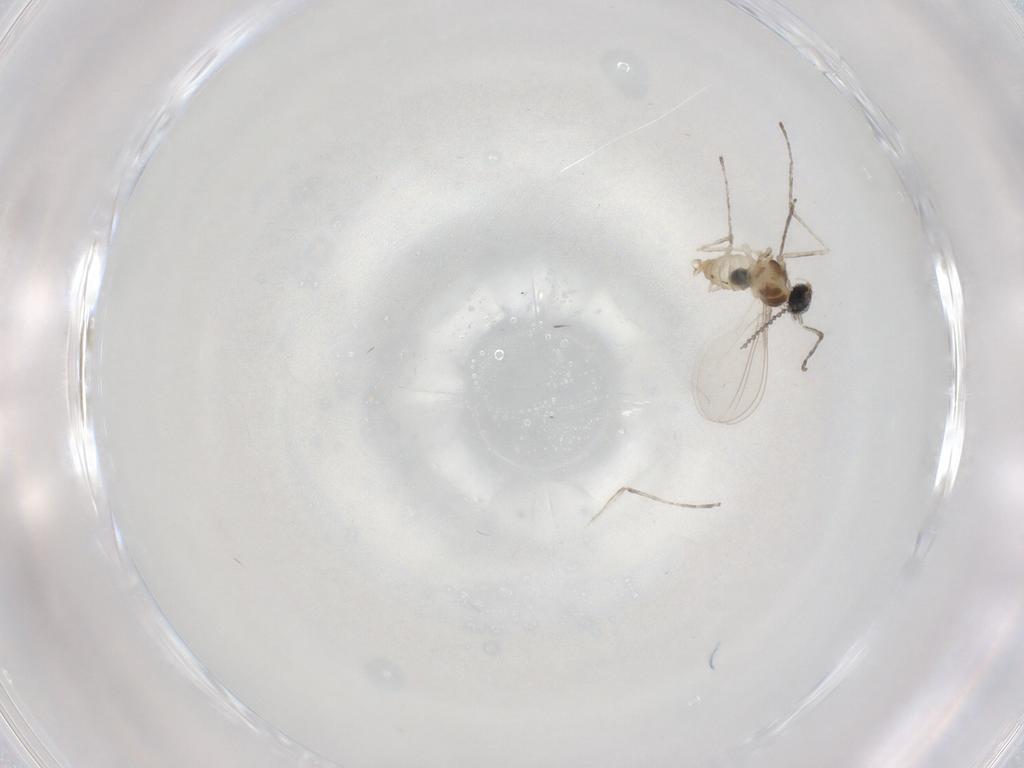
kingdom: Animalia
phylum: Arthropoda
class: Insecta
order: Diptera
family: Cecidomyiidae
